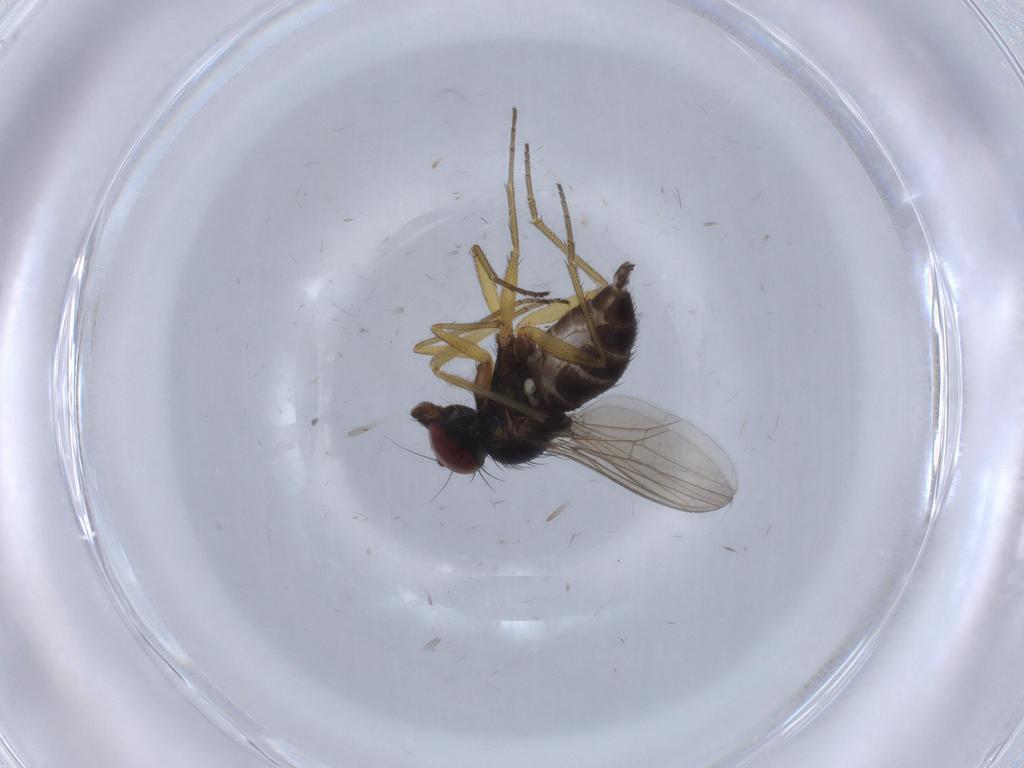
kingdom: Animalia
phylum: Arthropoda
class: Insecta
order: Diptera
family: Dolichopodidae
